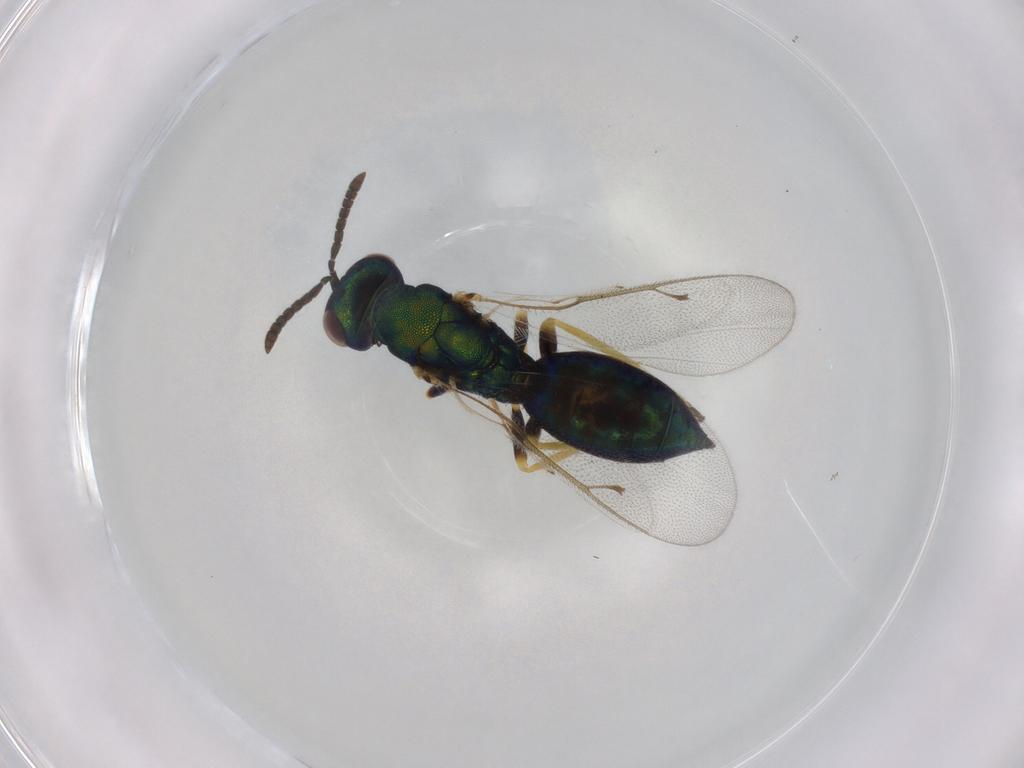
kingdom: Animalia
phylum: Arthropoda
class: Insecta
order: Hymenoptera
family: Pteromalidae
